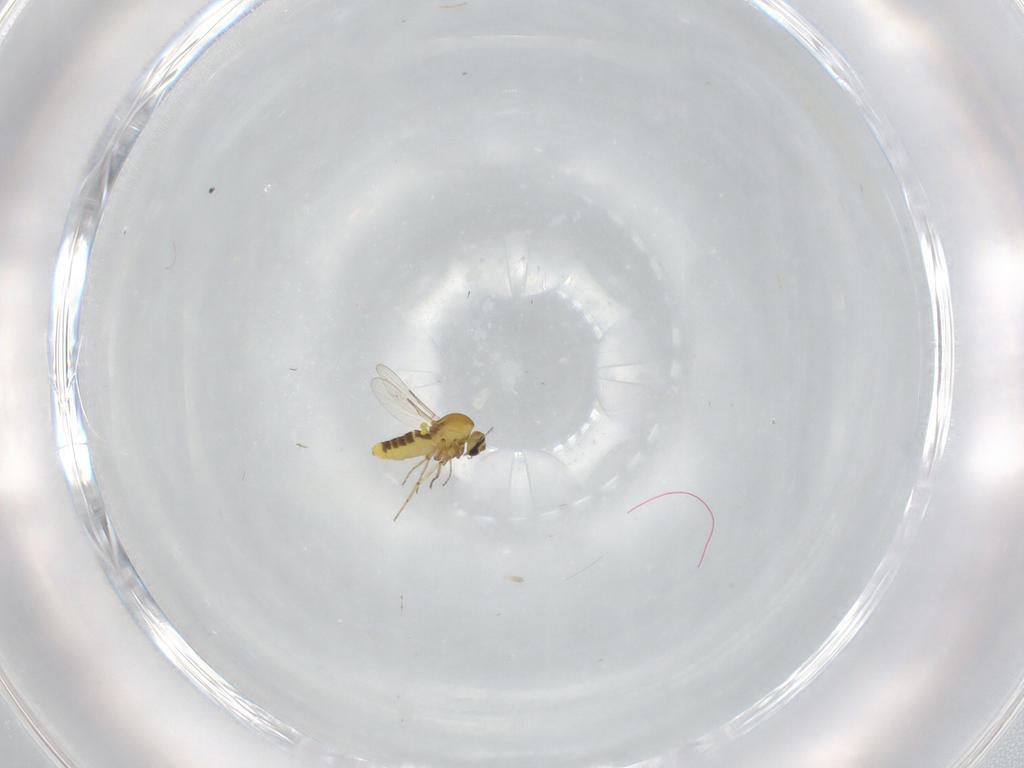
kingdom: Animalia
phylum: Arthropoda
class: Insecta
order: Diptera
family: Ceratopogonidae
